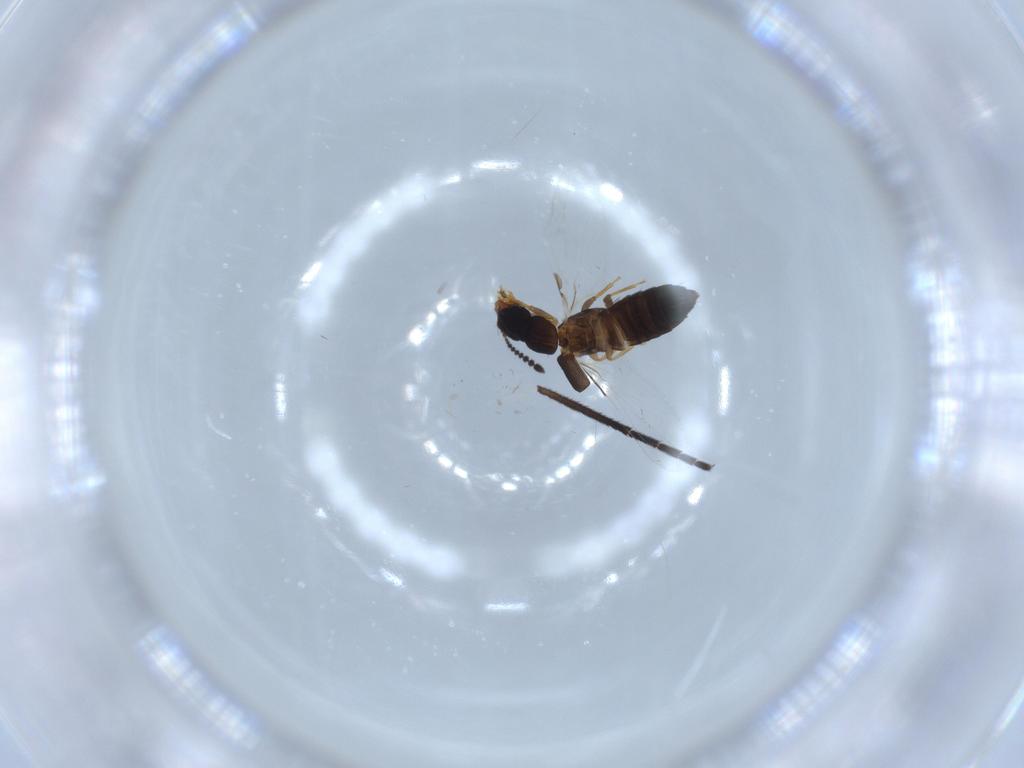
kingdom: Animalia
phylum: Arthropoda
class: Insecta
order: Coleoptera
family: Staphylinidae
